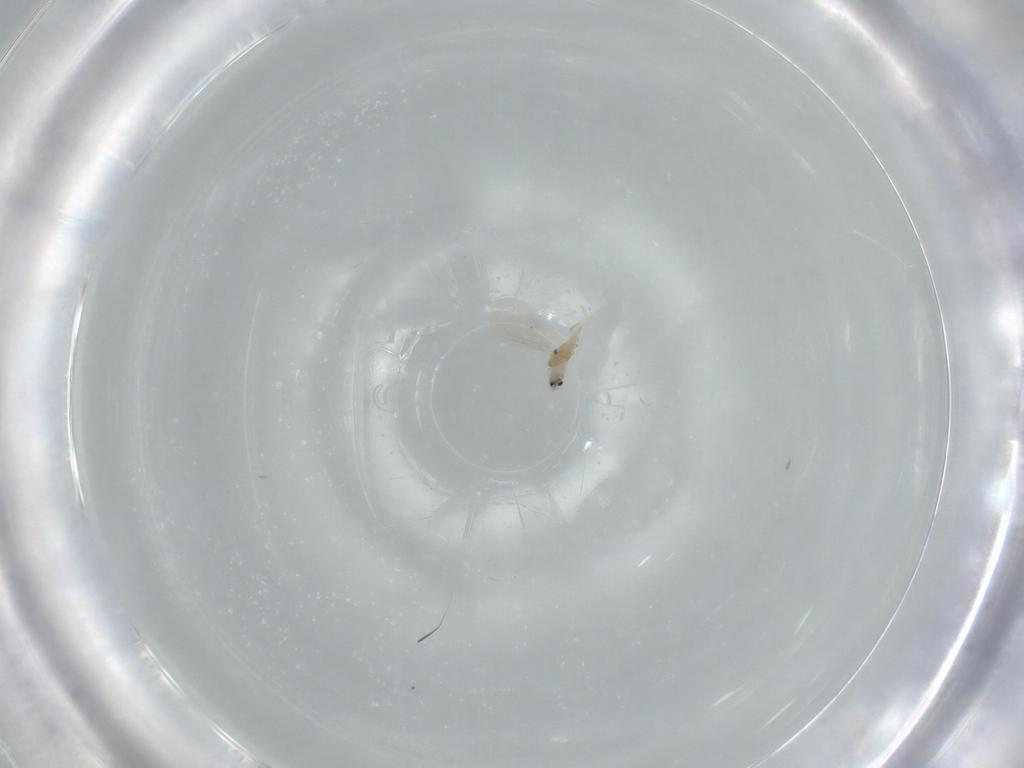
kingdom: Animalia
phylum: Arthropoda
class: Insecta
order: Hemiptera
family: Diaspididae
